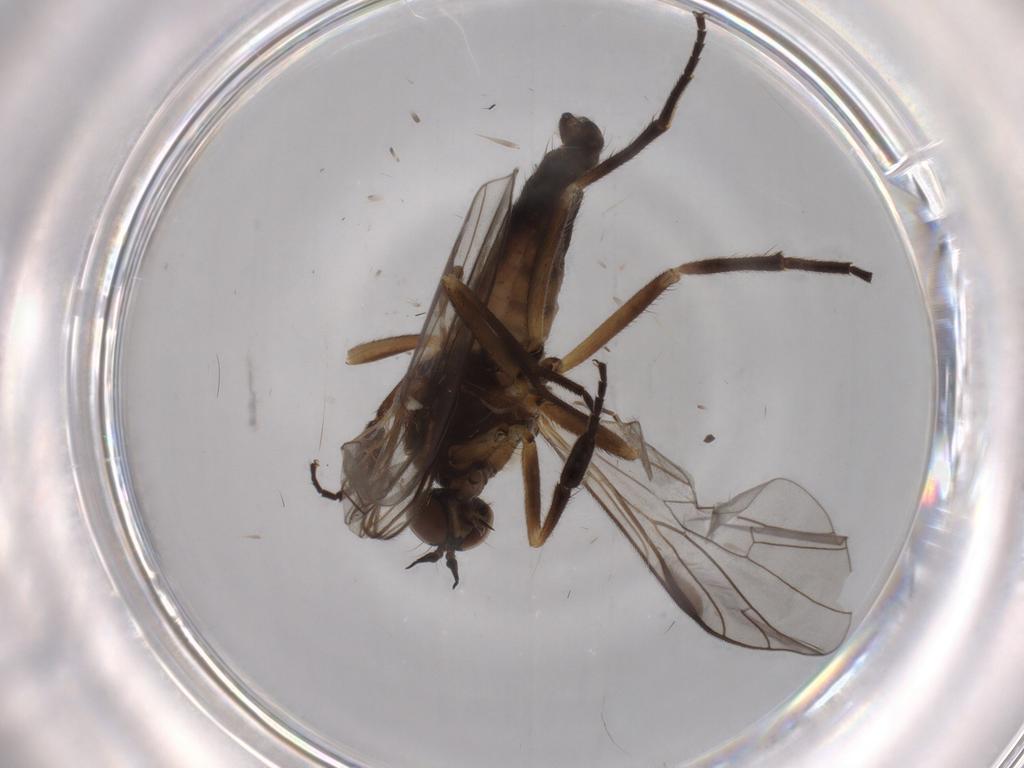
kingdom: Animalia
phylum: Arthropoda
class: Insecta
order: Diptera
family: Empididae
